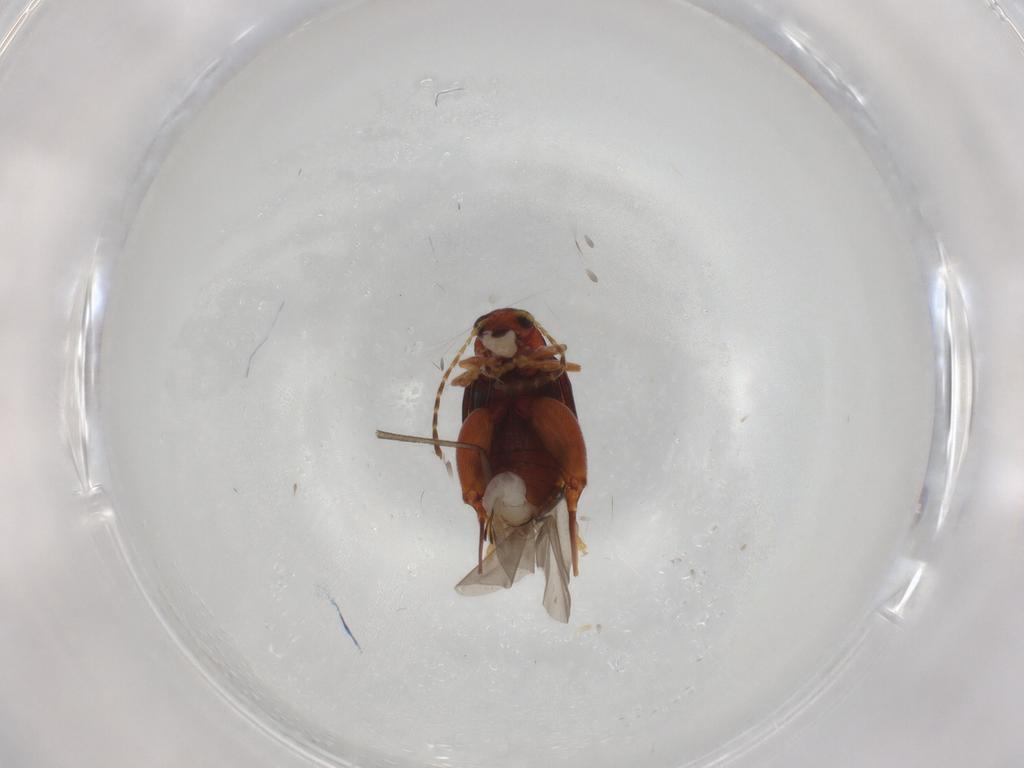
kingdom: Animalia
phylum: Arthropoda
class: Insecta
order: Coleoptera
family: Chrysomelidae
